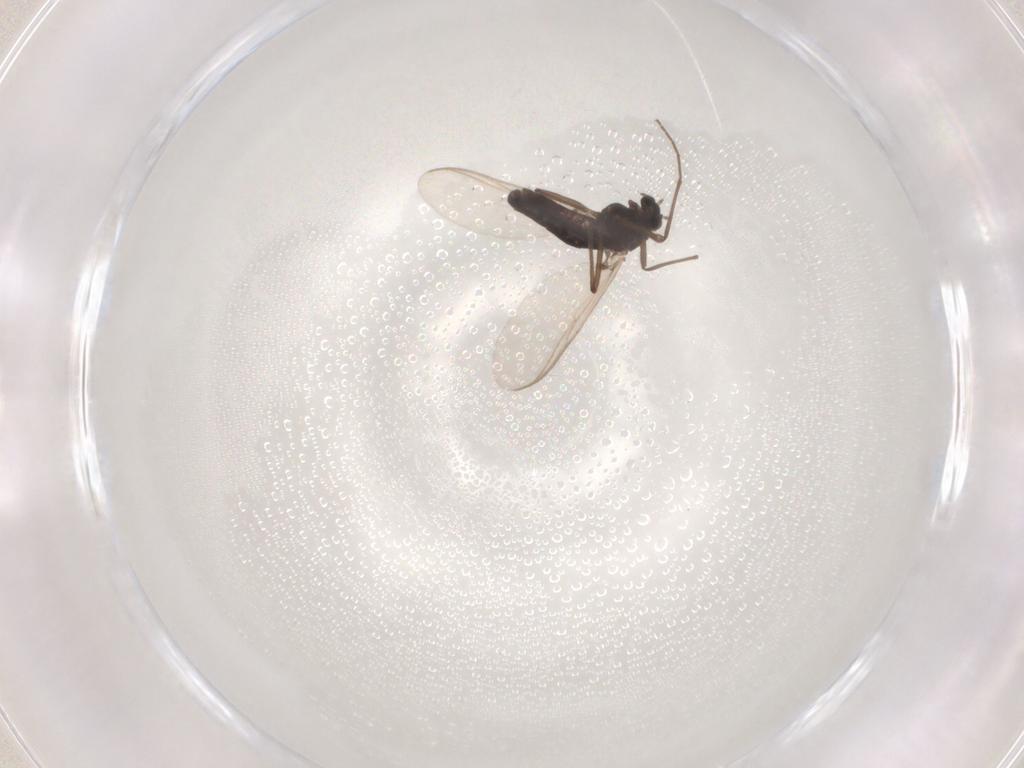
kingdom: Animalia
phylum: Arthropoda
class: Insecta
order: Diptera
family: Chironomidae
